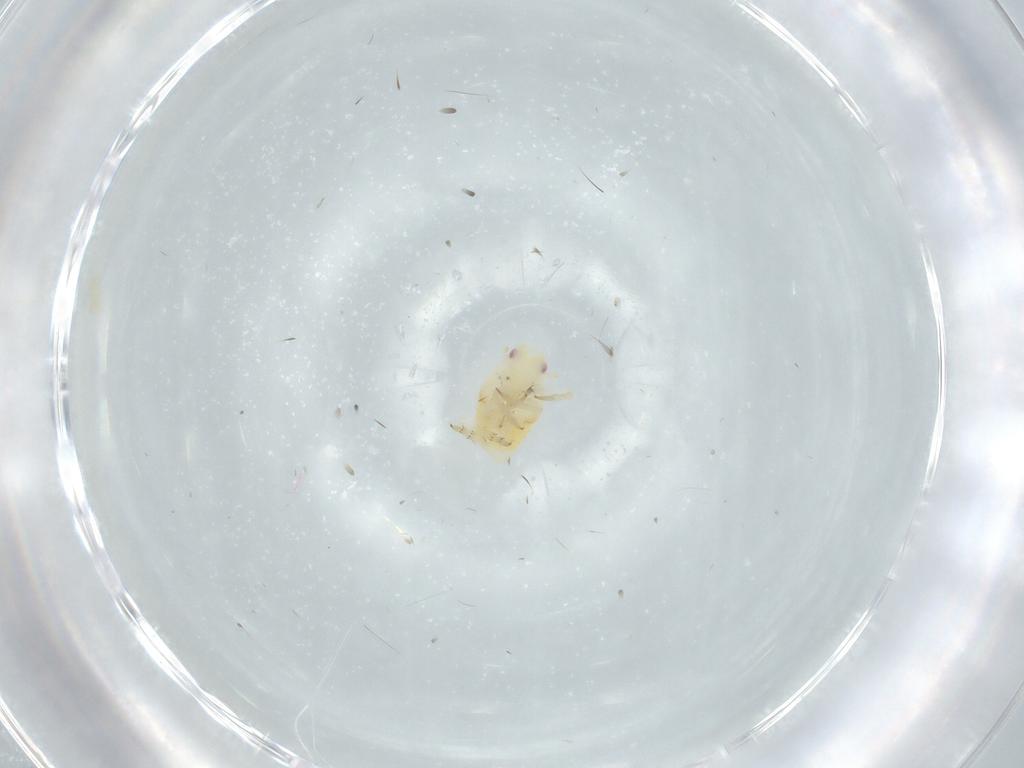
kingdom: Animalia
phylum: Arthropoda
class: Insecta
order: Hemiptera
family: Flatidae
